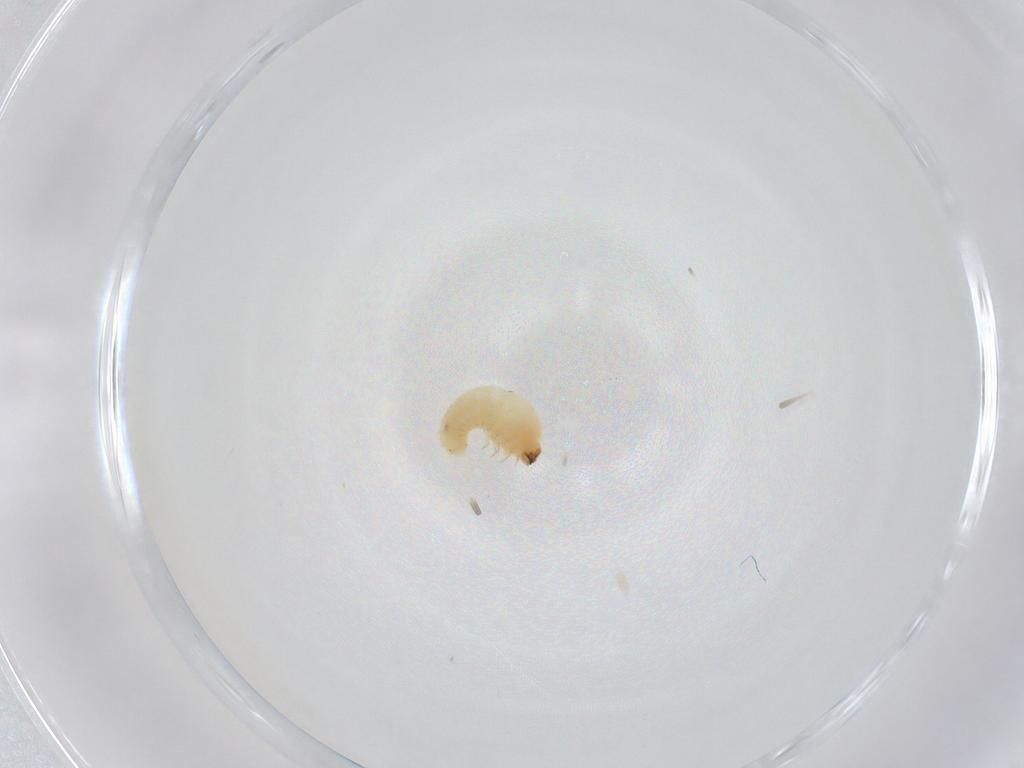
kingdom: Animalia
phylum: Arthropoda
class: Insecta
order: Coleoptera
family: Bostrichidae
